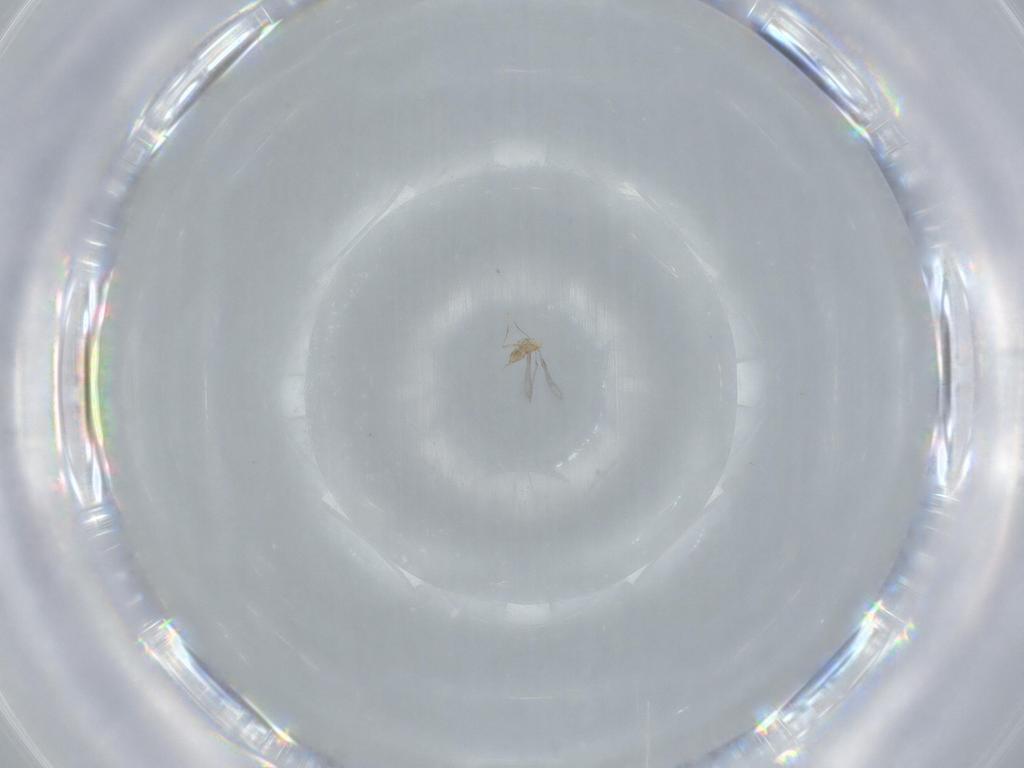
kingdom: Animalia
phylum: Arthropoda
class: Insecta
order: Hymenoptera
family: Mymaridae
